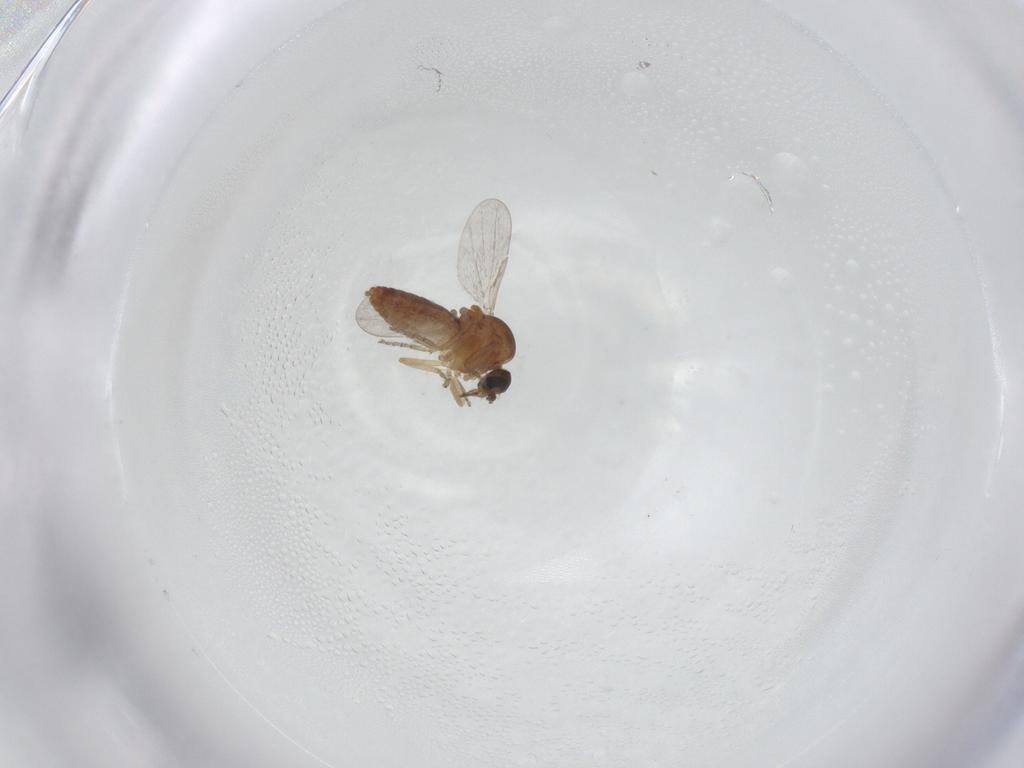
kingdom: Animalia
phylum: Arthropoda
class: Insecta
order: Diptera
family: Ceratopogonidae
